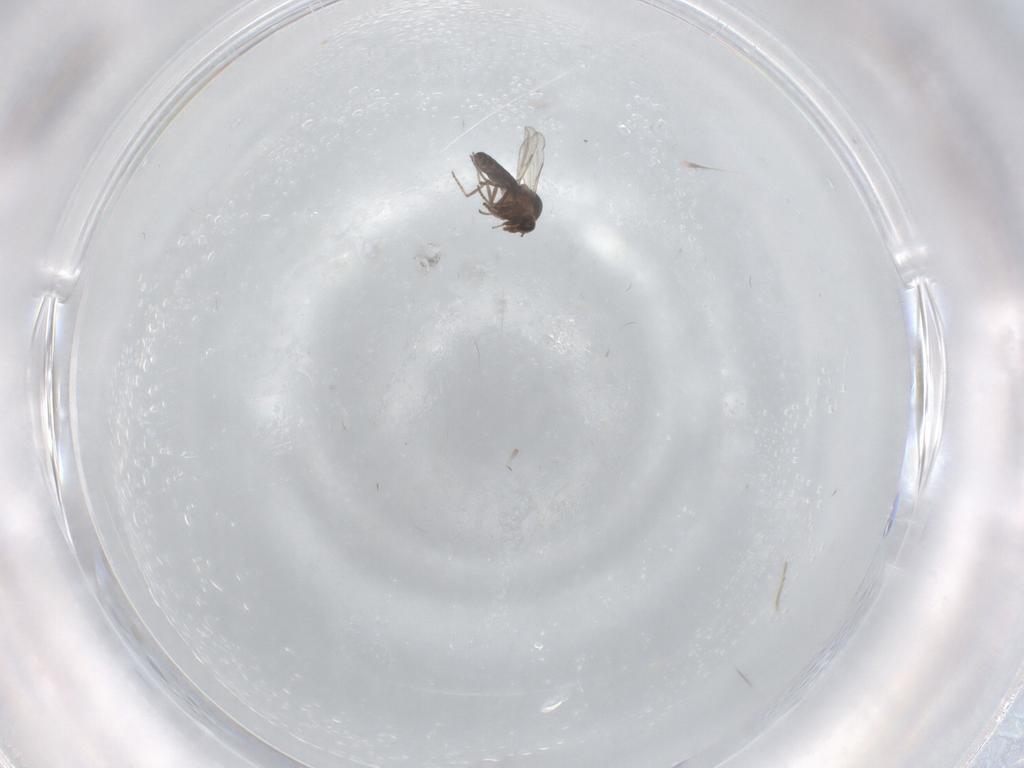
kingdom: Animalia
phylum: Arthropoda
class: Insecta
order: Diptera
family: Ceratopogonidae
